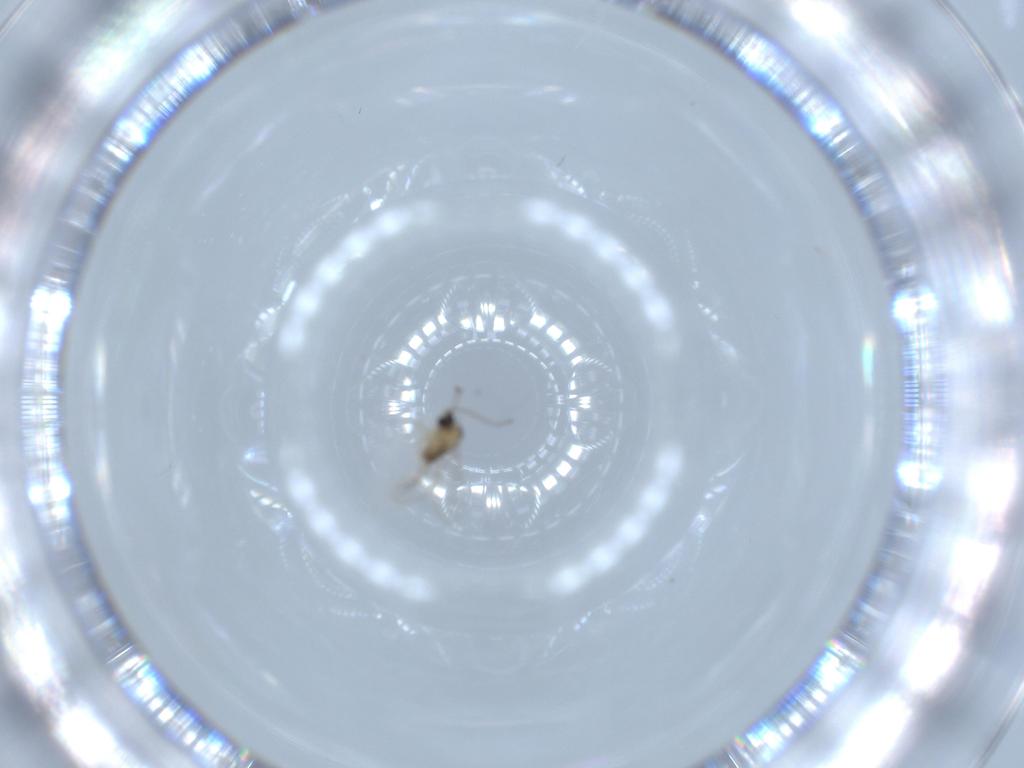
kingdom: Animalia
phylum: Arthropoda
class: Insecta
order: Diptera
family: Cecidomyiidae
